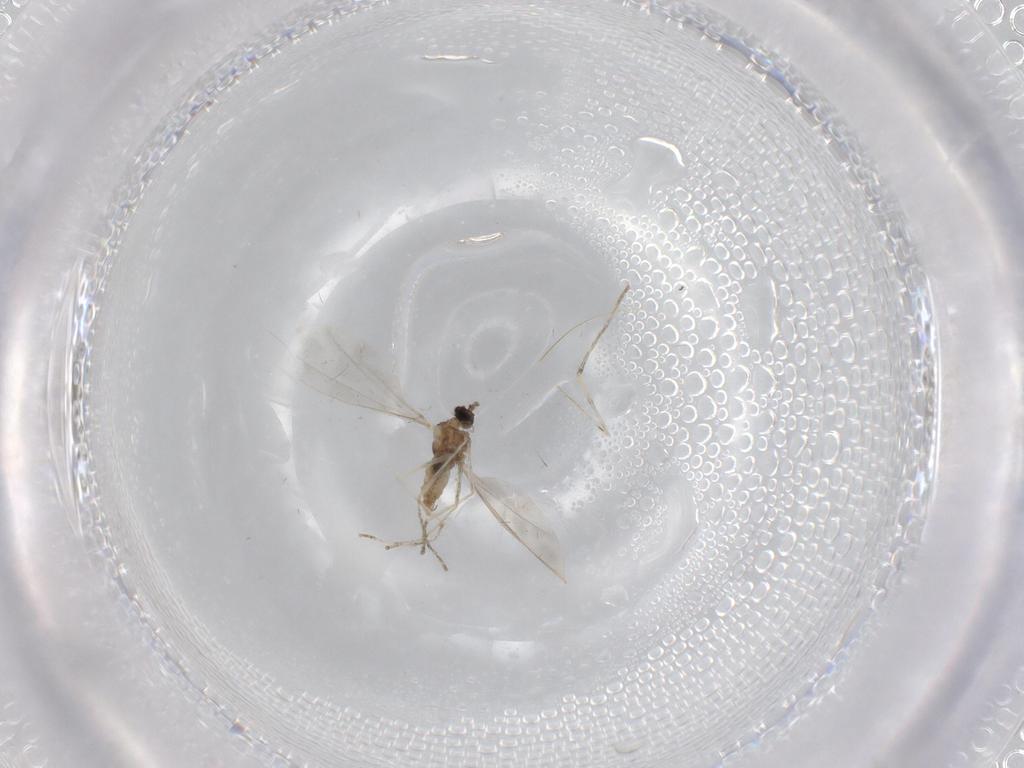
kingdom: Animalia
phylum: Arthropoda
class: Insecta
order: Diptera
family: Cecidomyiidae
